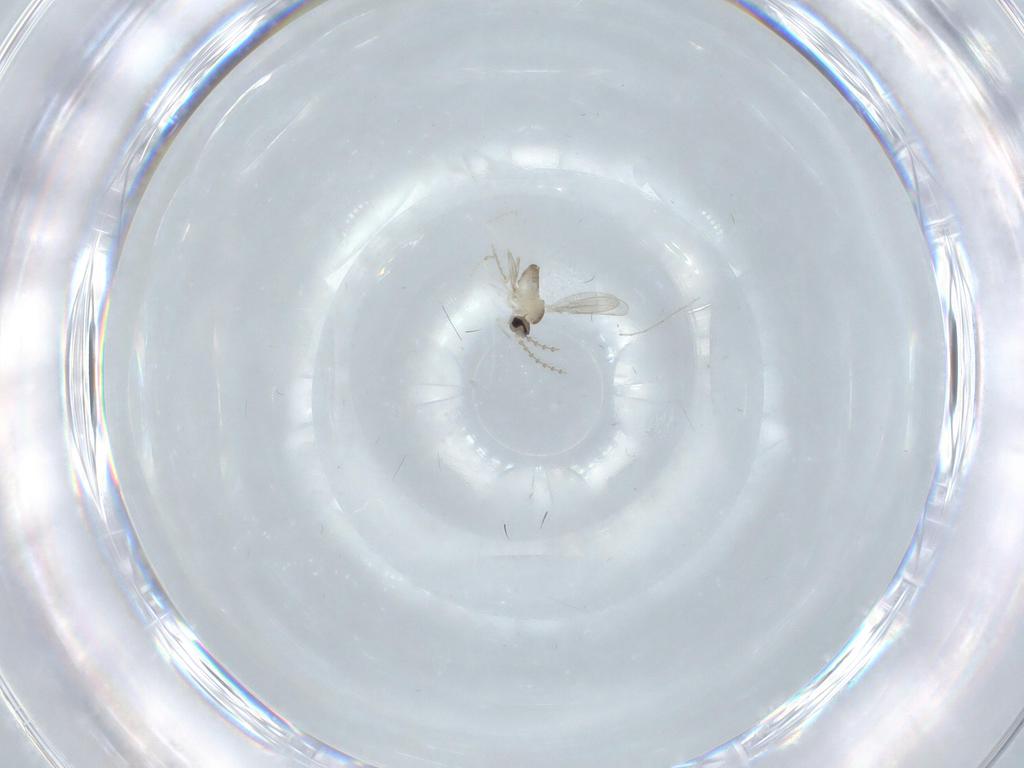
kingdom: Animalia
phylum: Arthropoda
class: Insecta
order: Diptera
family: Cecidomyiidae
